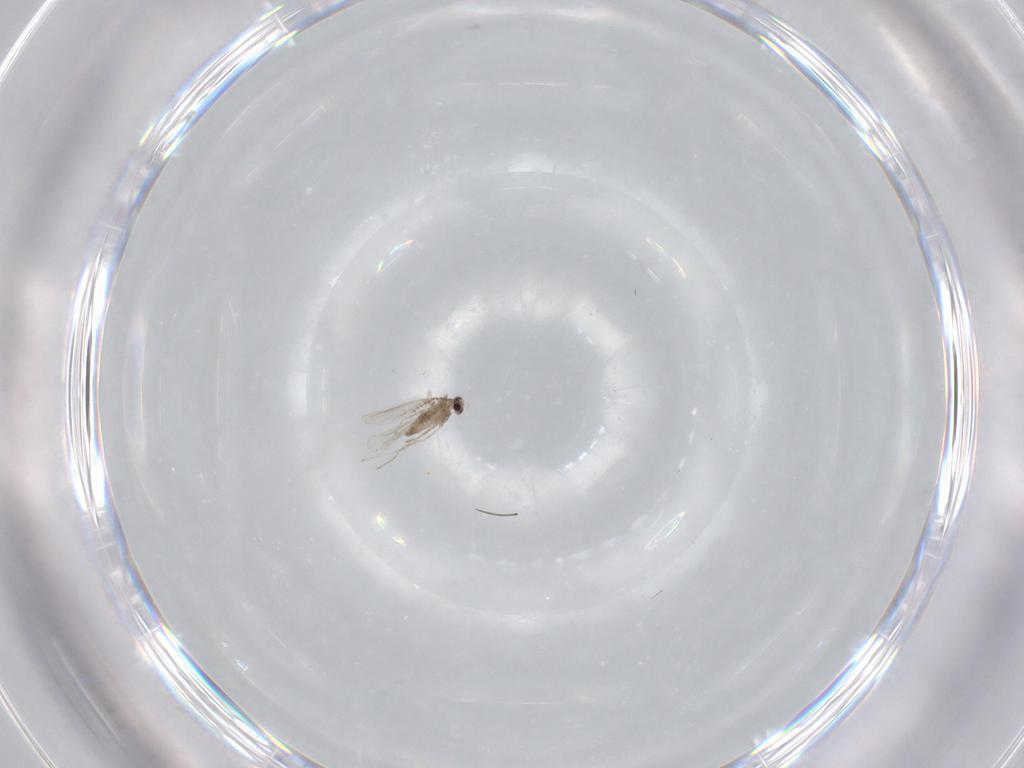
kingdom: Animalia
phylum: Arthropoda
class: Insecta
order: Diptera
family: Cecidomyiidae
